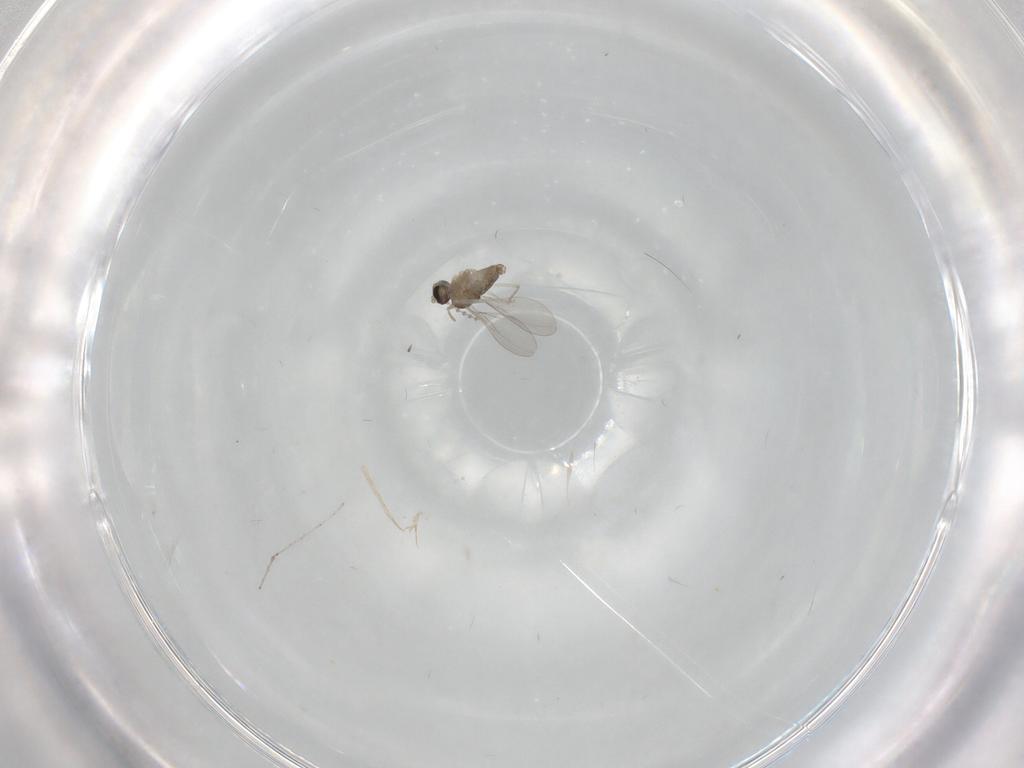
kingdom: Animalia
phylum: Arthropoda
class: Insecta
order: Diptera
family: Cecidomyiidae
